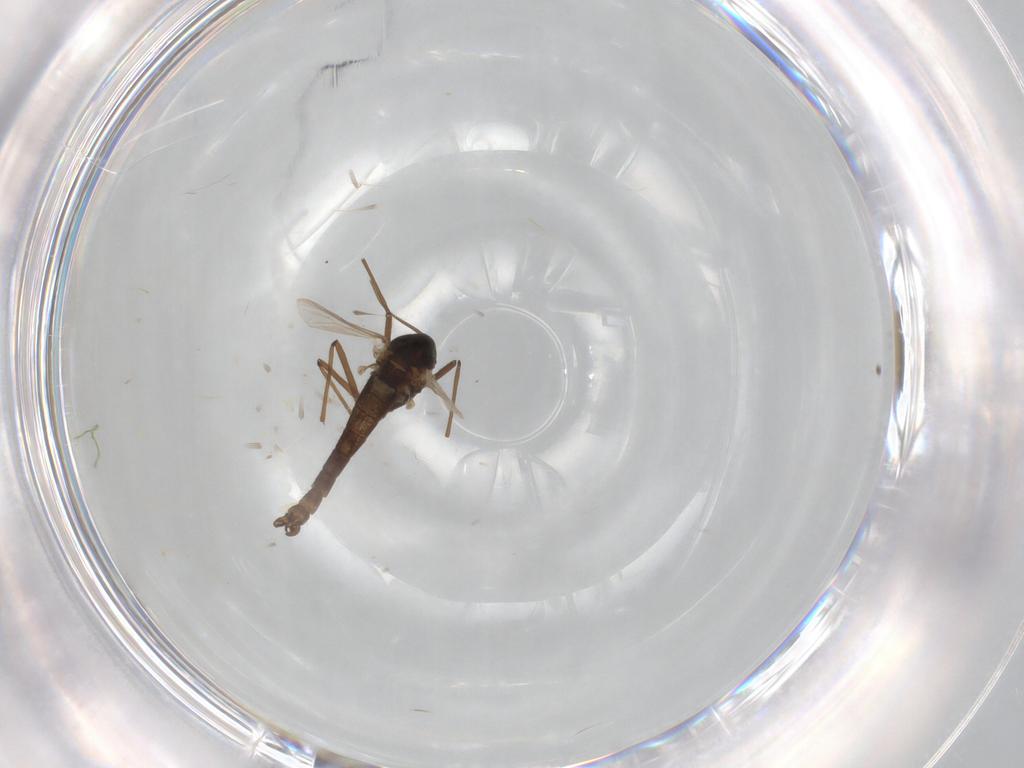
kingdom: Animalia
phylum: Arthropoda
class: Insecta
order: Diptera
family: Chironomidae
